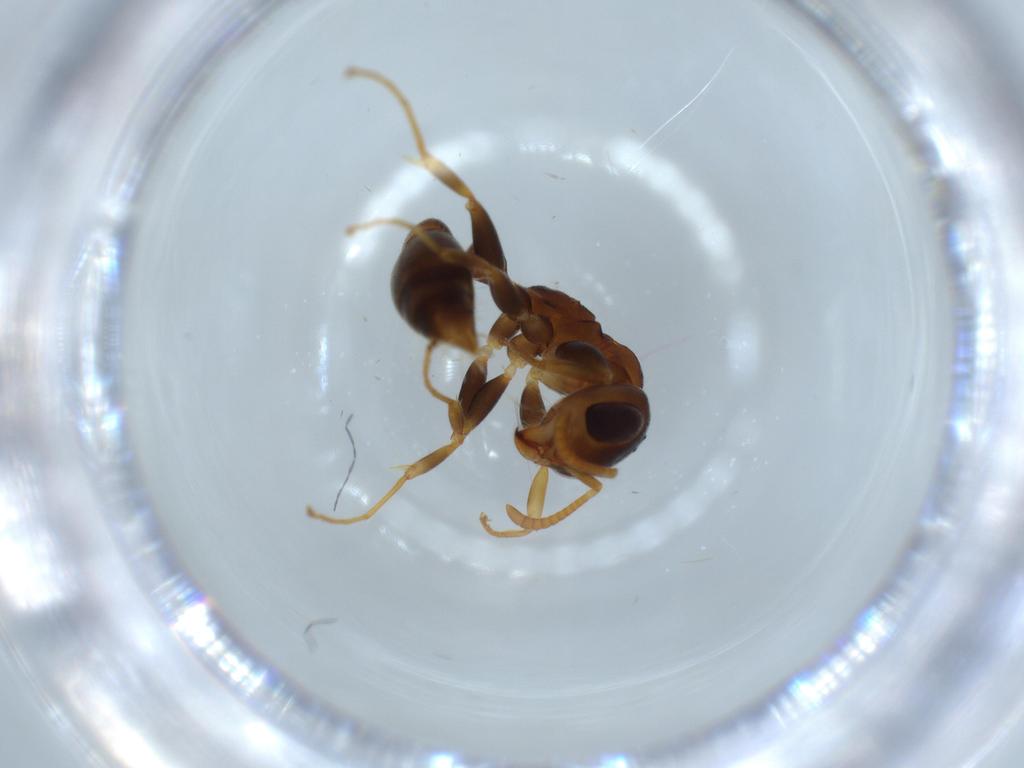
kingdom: Animalia
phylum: Arthropoda
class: Insecta
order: Hymenoptera
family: Formicidae
